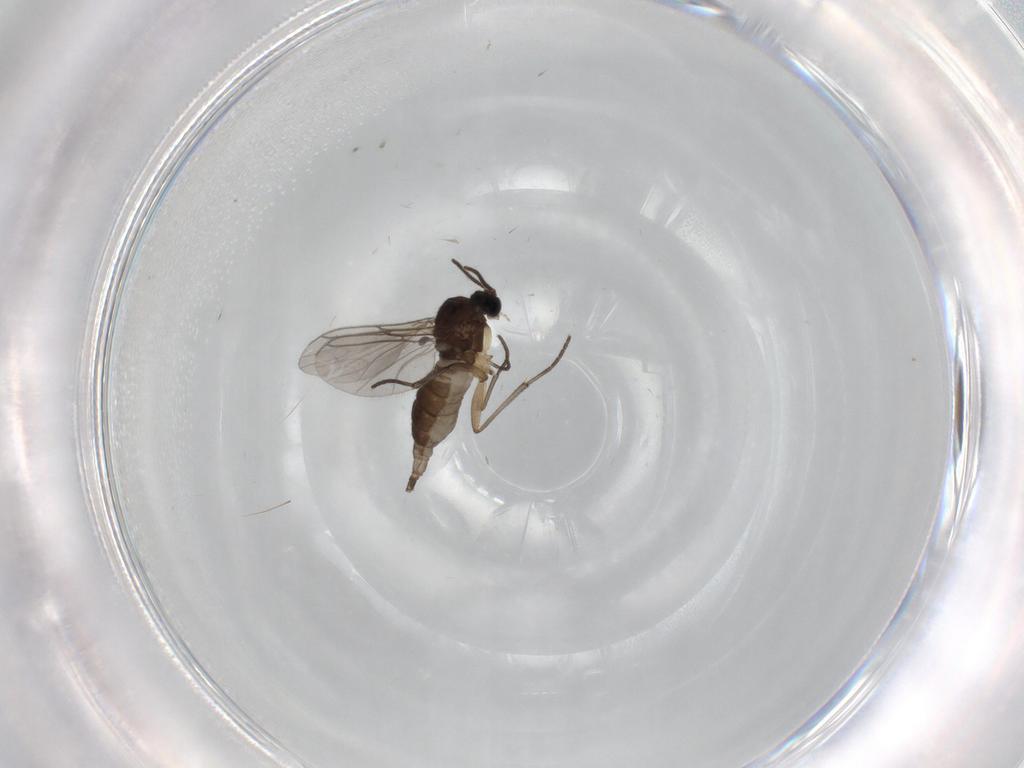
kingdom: Animalia
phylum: Arthropoda
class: Insecta
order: Diptera
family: Sciaridae
